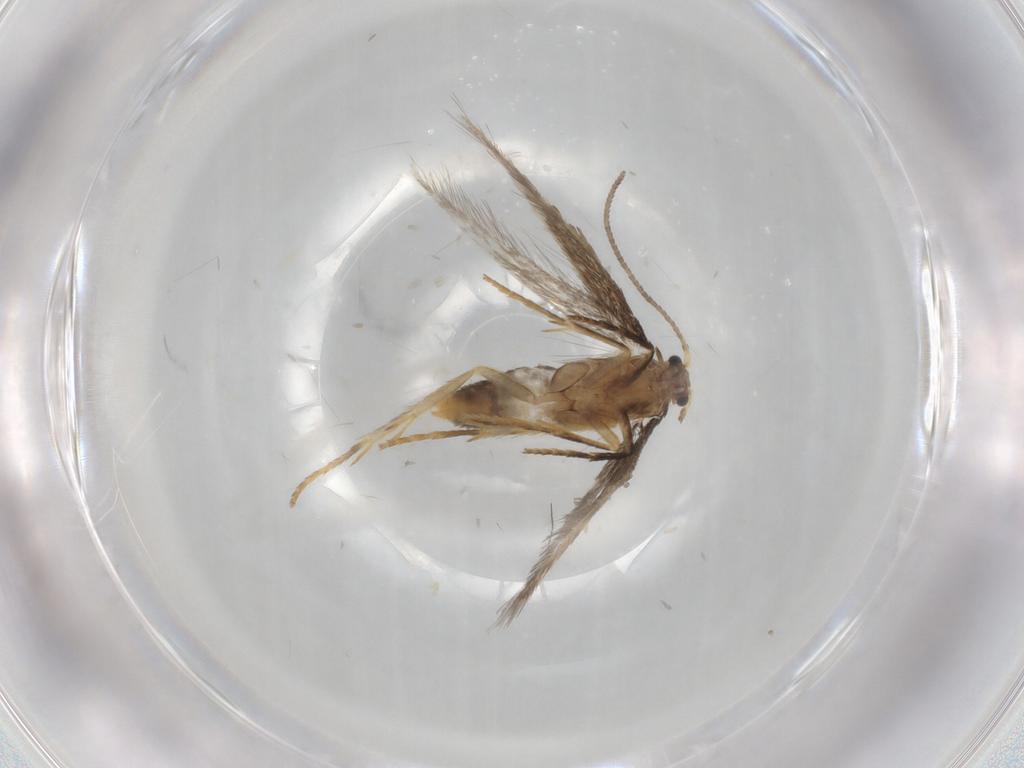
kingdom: Animalia
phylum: Arthropoda
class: Insecta
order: Lepidoptera
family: Nepticulidae
